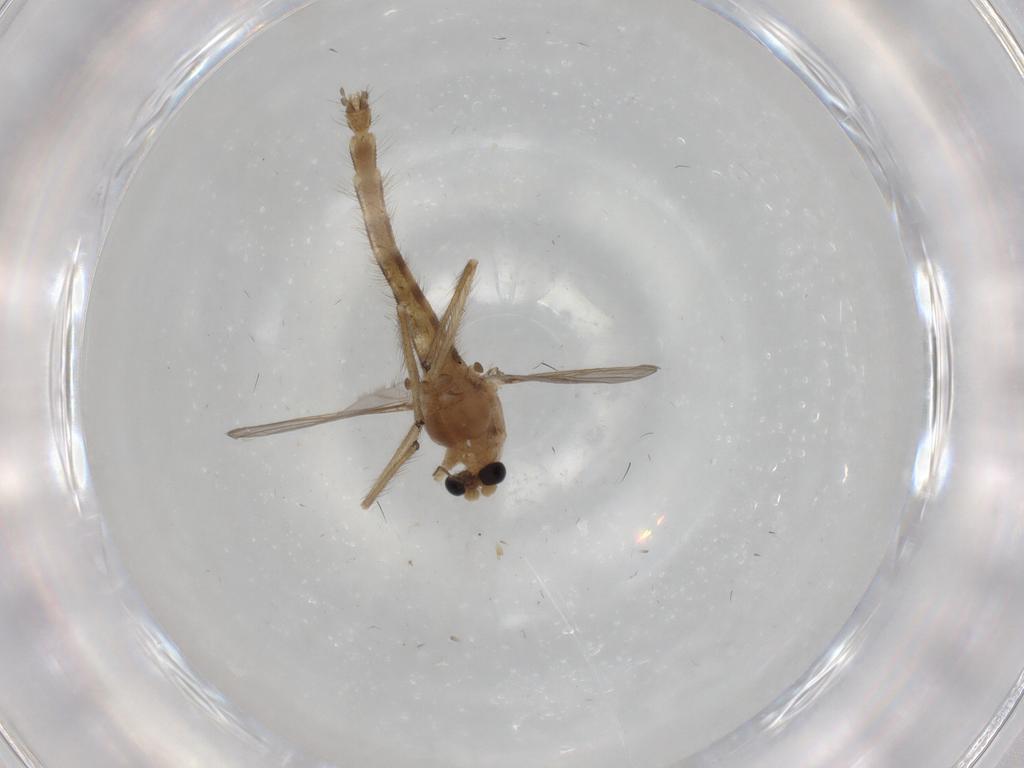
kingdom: Animalia
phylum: Arthropoda
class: Insecta
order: Diptera
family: Chironomidae
